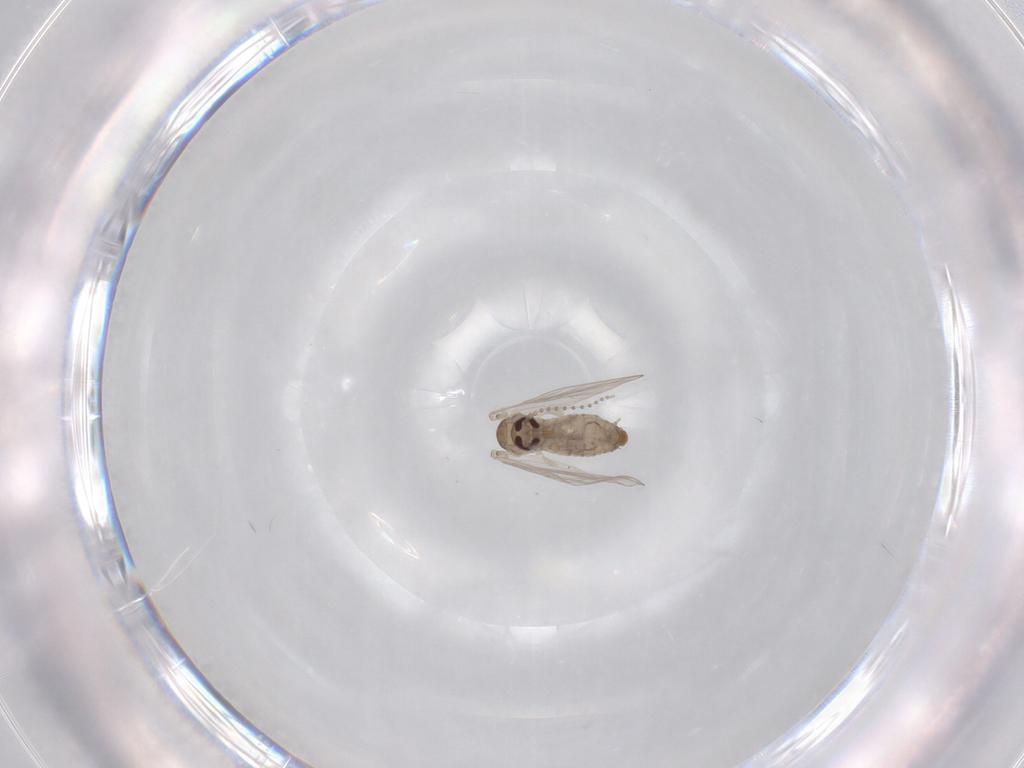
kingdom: Animalia
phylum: Arthropoda
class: Insecta
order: Diptera
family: Psychodidae
